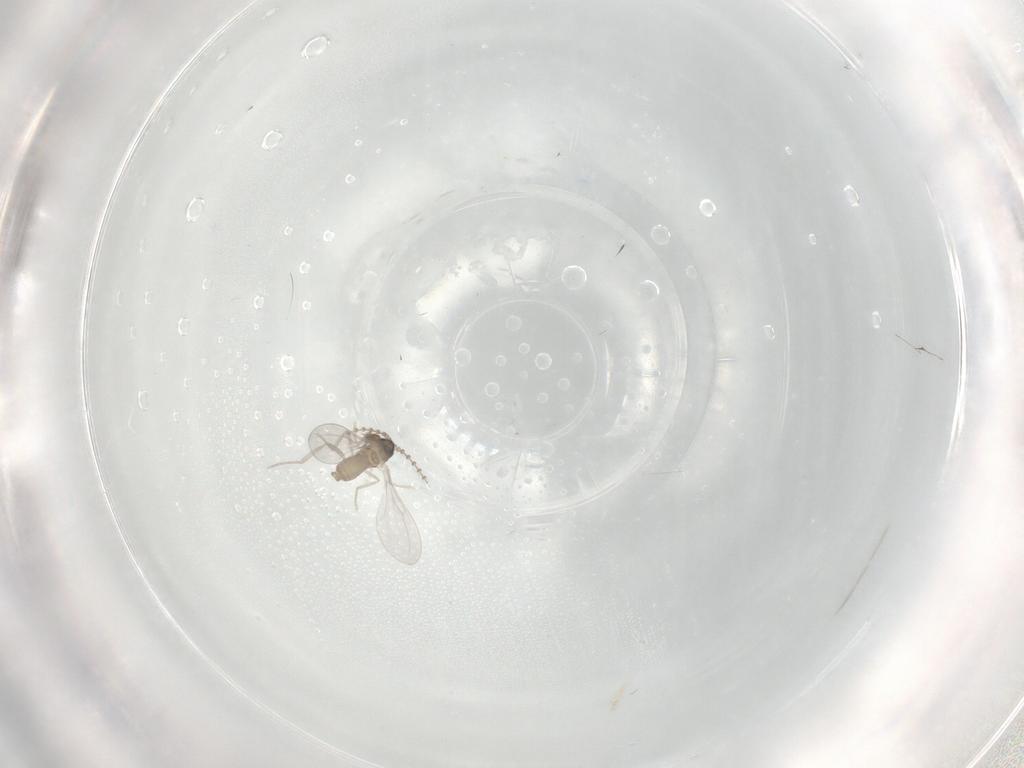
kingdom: Animalia
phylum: Arthropoda
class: Insecta
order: Diptera
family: Cecidomyiidae
